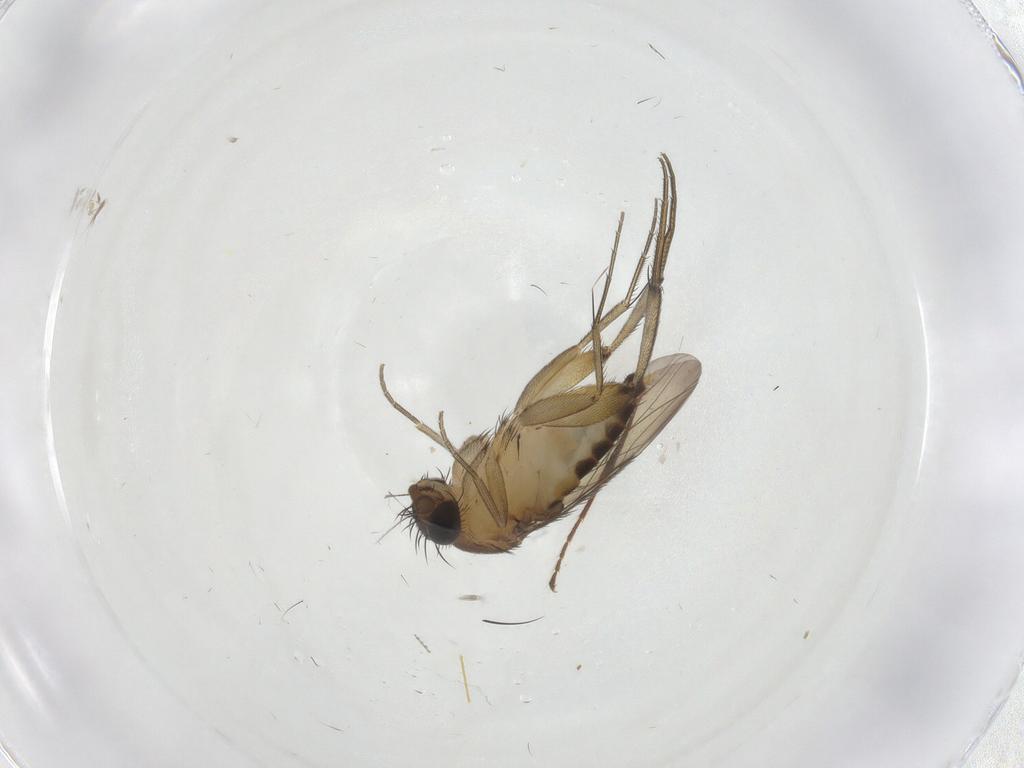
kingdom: Animalia
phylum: Arthropoda
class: Insecta
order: Diptera
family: Phoridae
